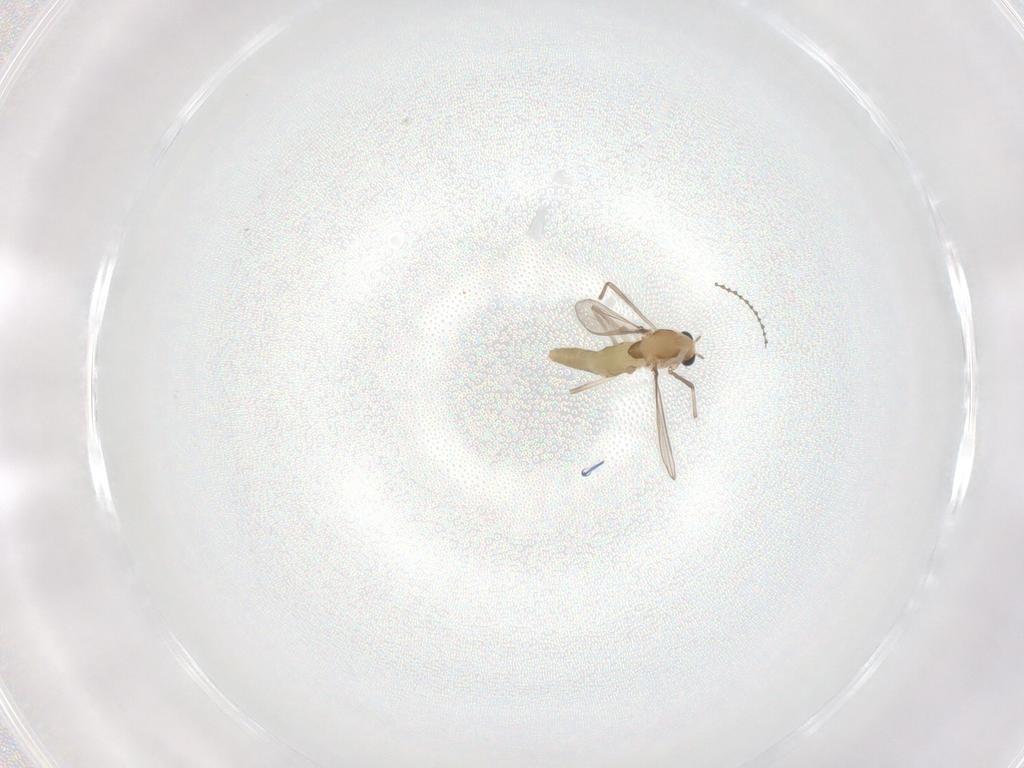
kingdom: Animalia
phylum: Arthropoda
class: Insecta
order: Diptera
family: Chironomidae
